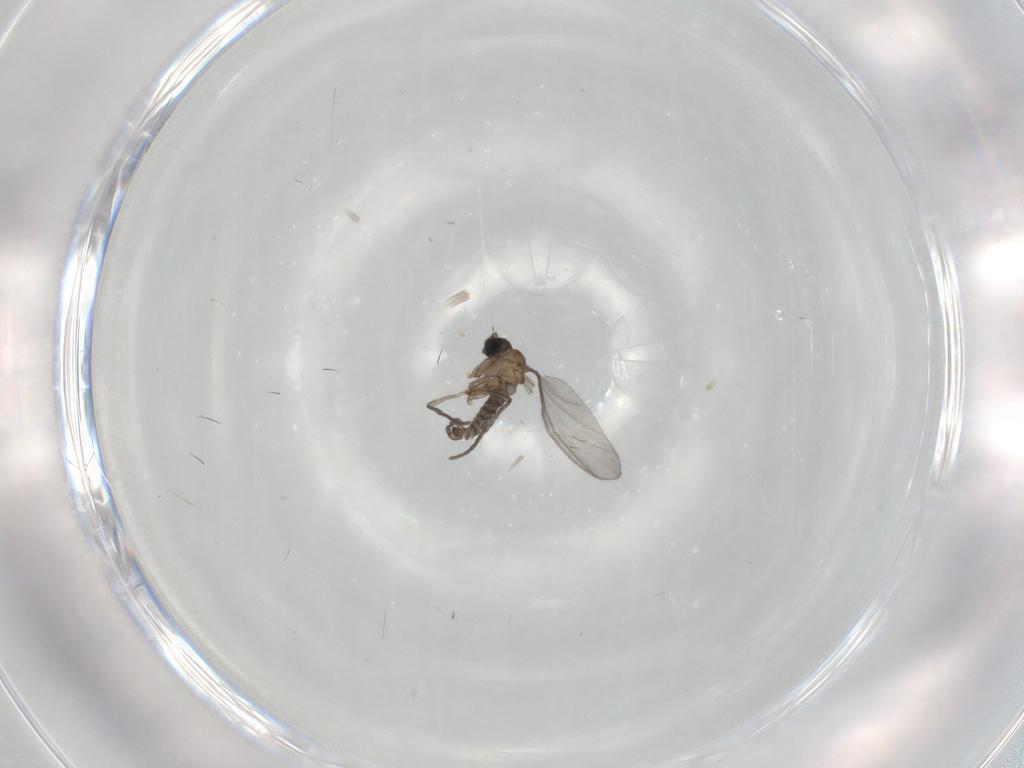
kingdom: Animalia
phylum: Arthropoda
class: Insecta
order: Diptera
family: Sciaridae
